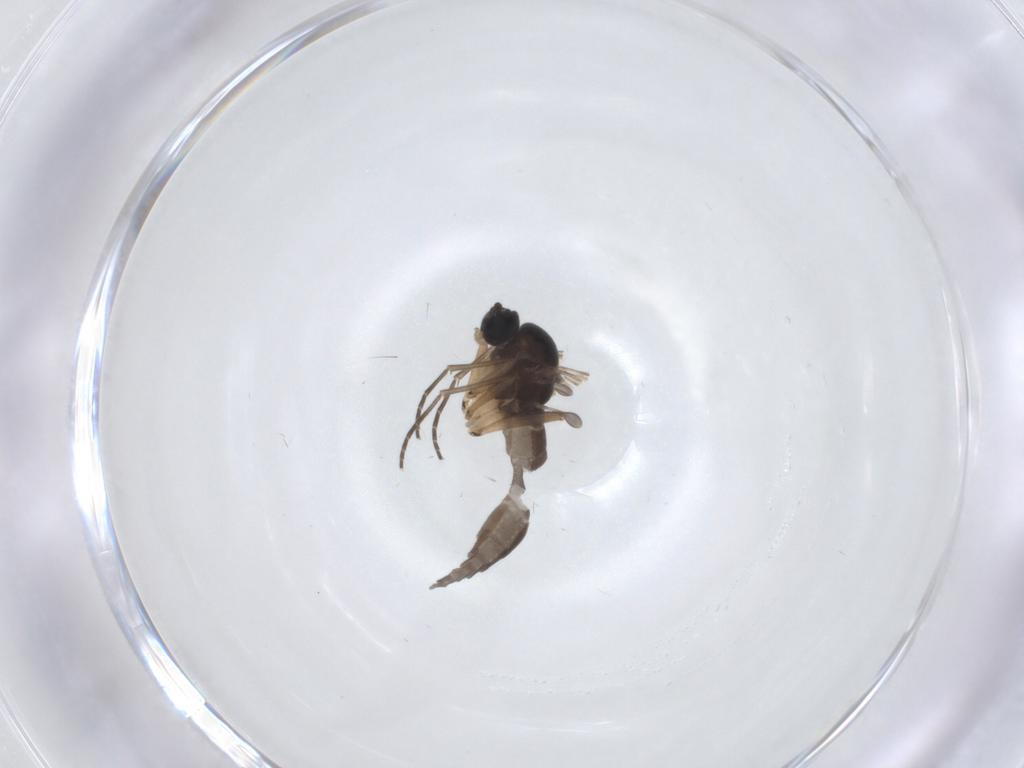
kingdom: Animalia
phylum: Arthropoda
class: Insecta
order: Diptera
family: Sciaridae
